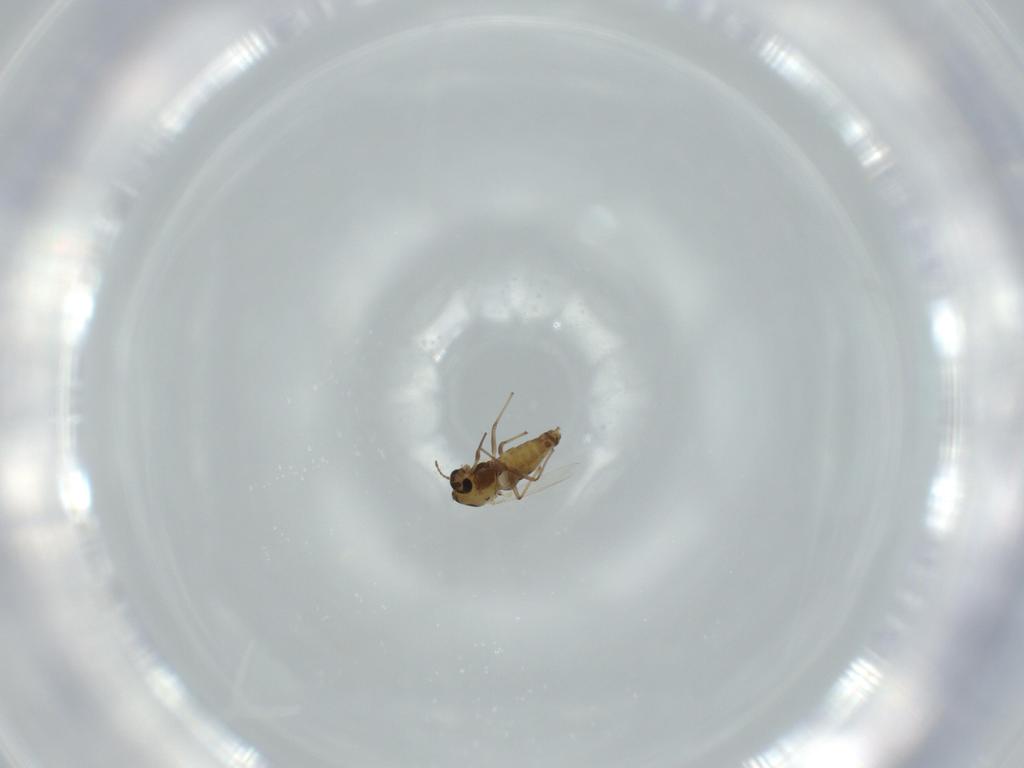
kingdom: Animalia
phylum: Arthropoda
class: Insecta
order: Diptera
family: Chironomidae
